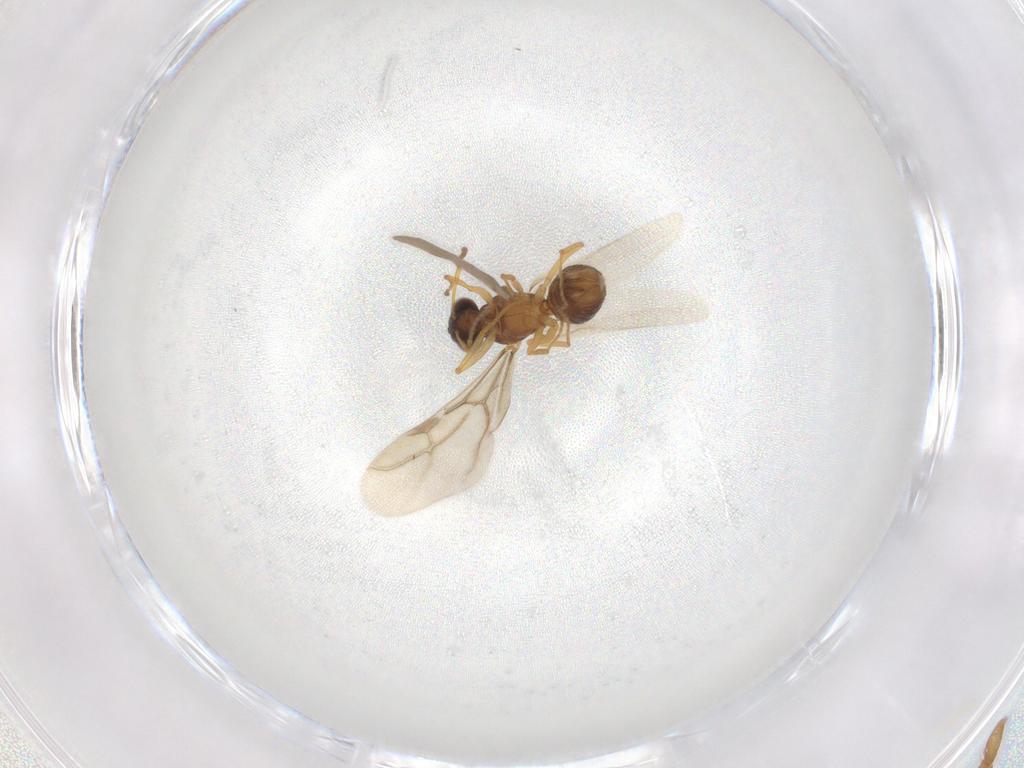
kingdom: Animalia
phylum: Arthropoda
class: Insecta
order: Hymenoptera
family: Formicidae
